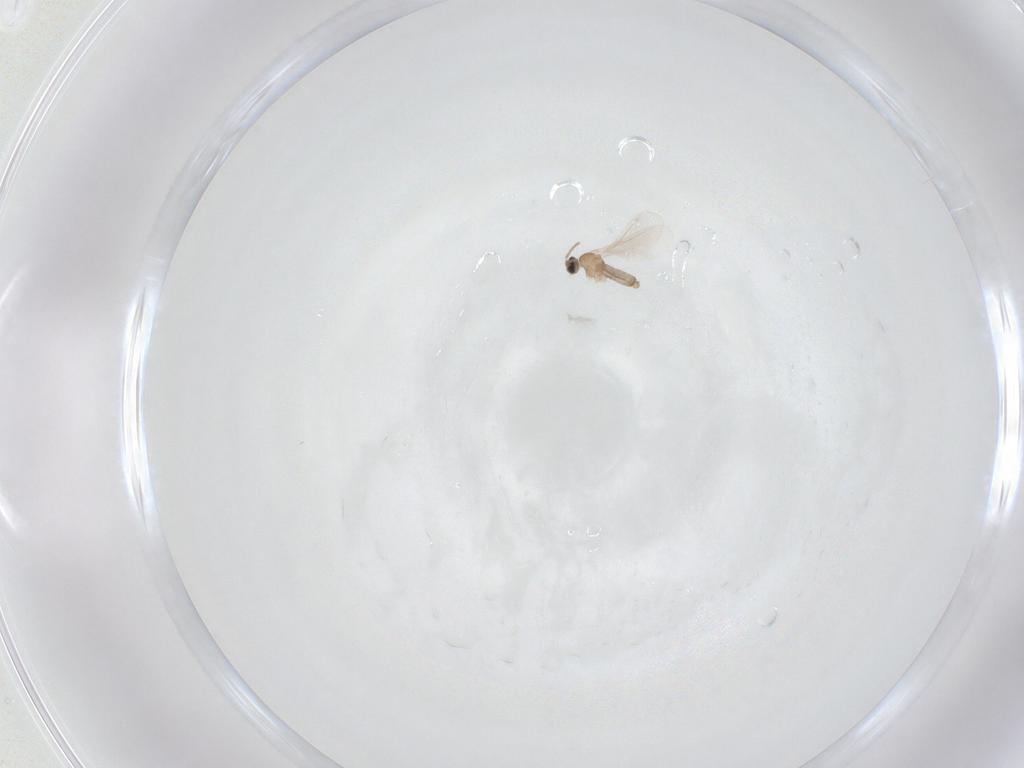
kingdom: Animalia
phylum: Arthropoda
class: Insecta
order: Diptera
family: Cecidomyiidae
